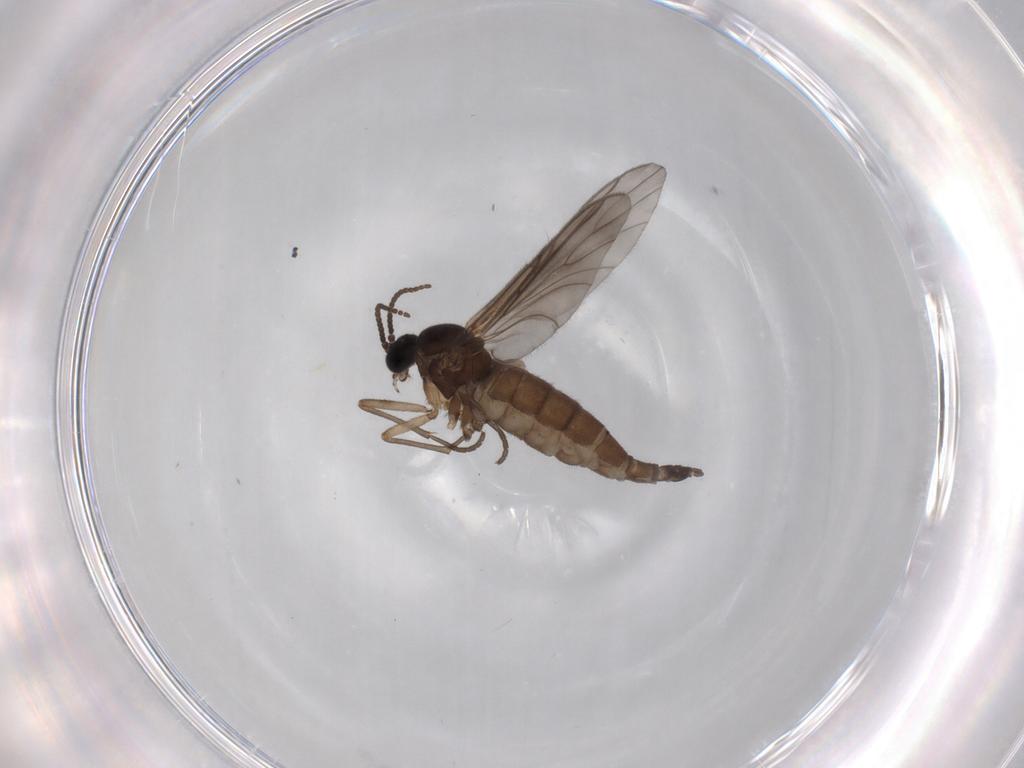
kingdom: Animalia
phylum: Arthropoda
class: Insecta
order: Diptera
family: Sciaridae
